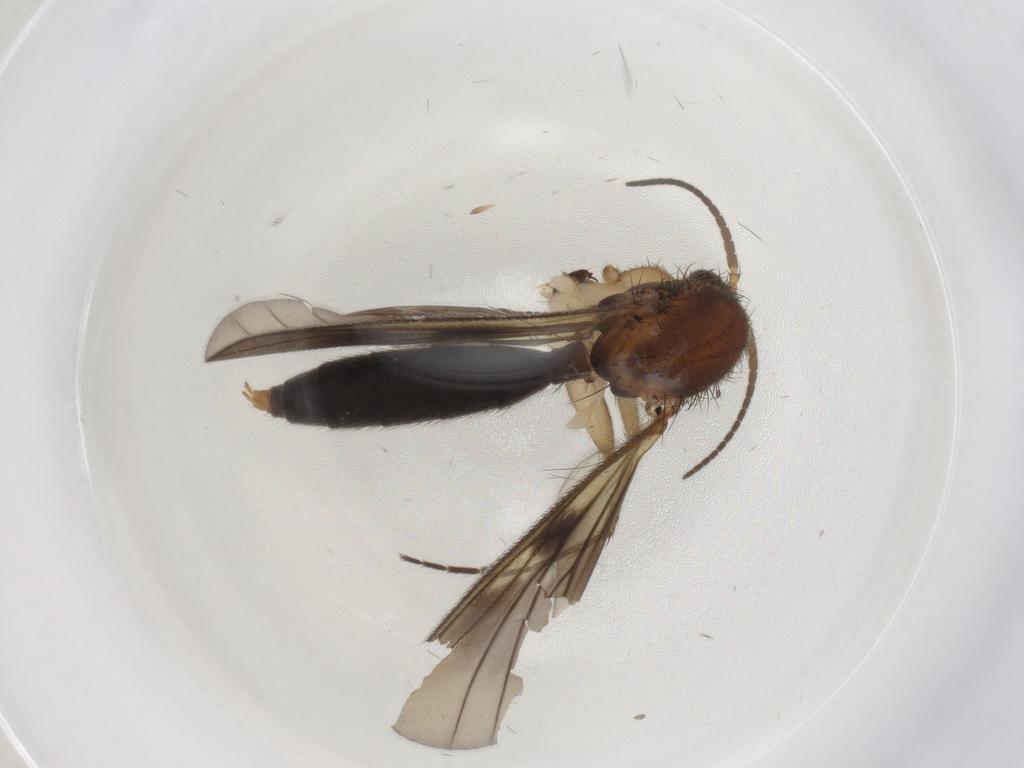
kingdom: Animalia
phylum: Arthropoda
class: Insecta
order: Diptera
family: Mycetophilidae
